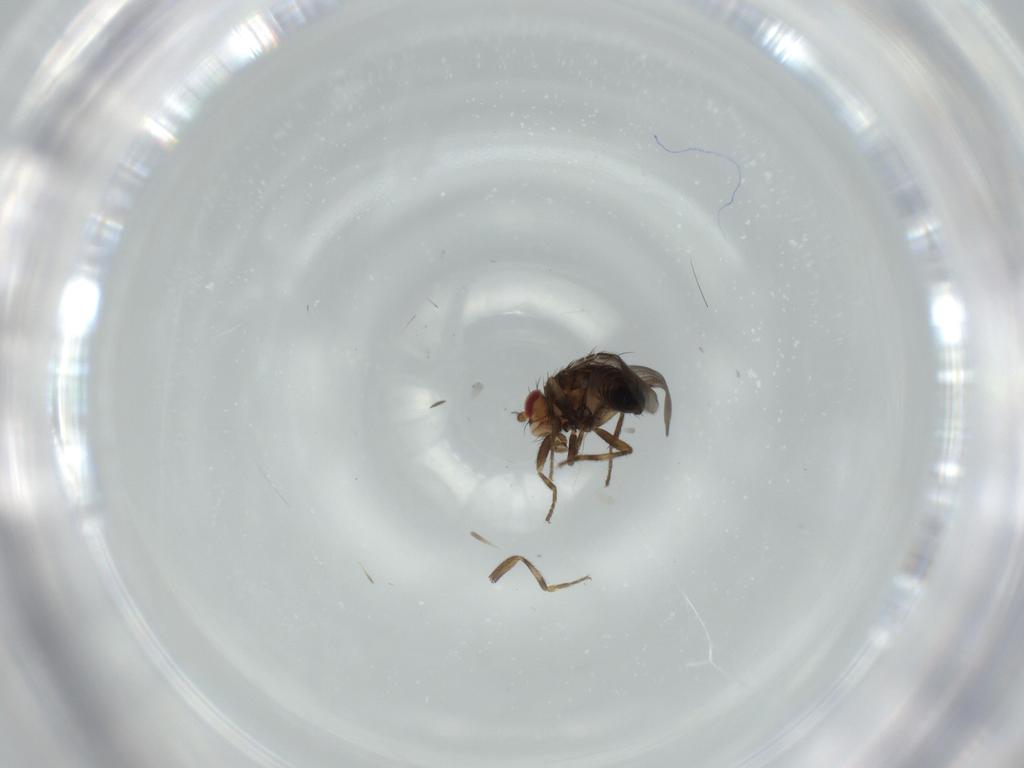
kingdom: Animalia
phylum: Arthropoda
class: Insecta
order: Diptera
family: Sphaeroceridae
